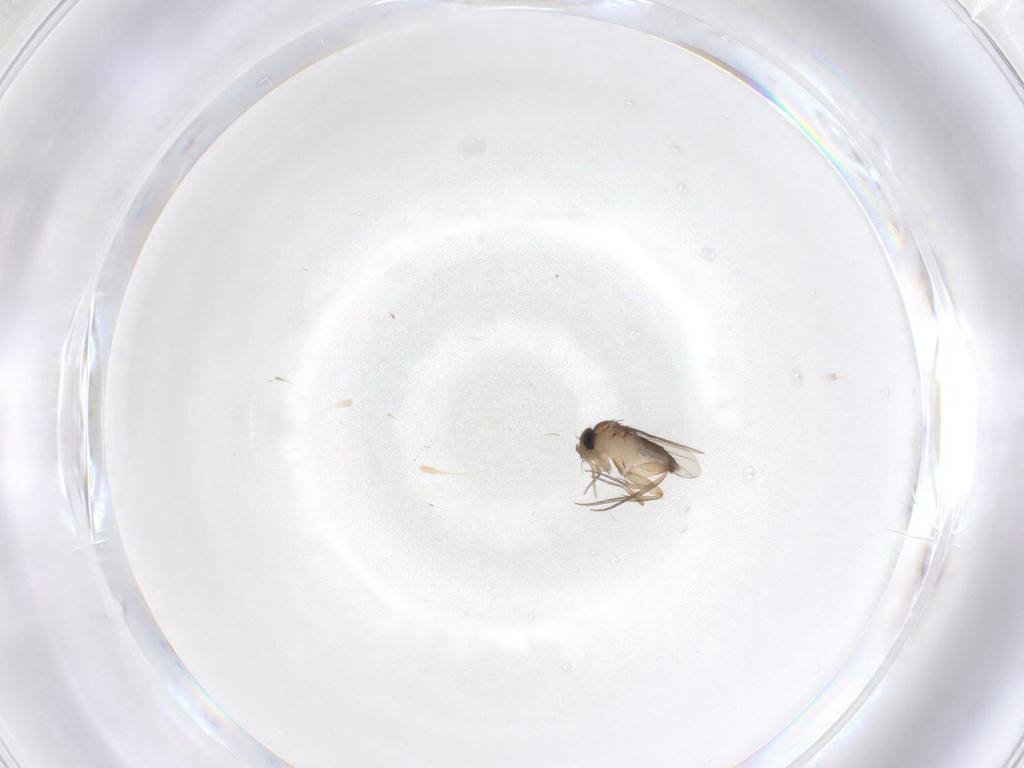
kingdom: Animalia
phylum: Arthropoda
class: Insecta
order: Diptera
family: Phoridae
